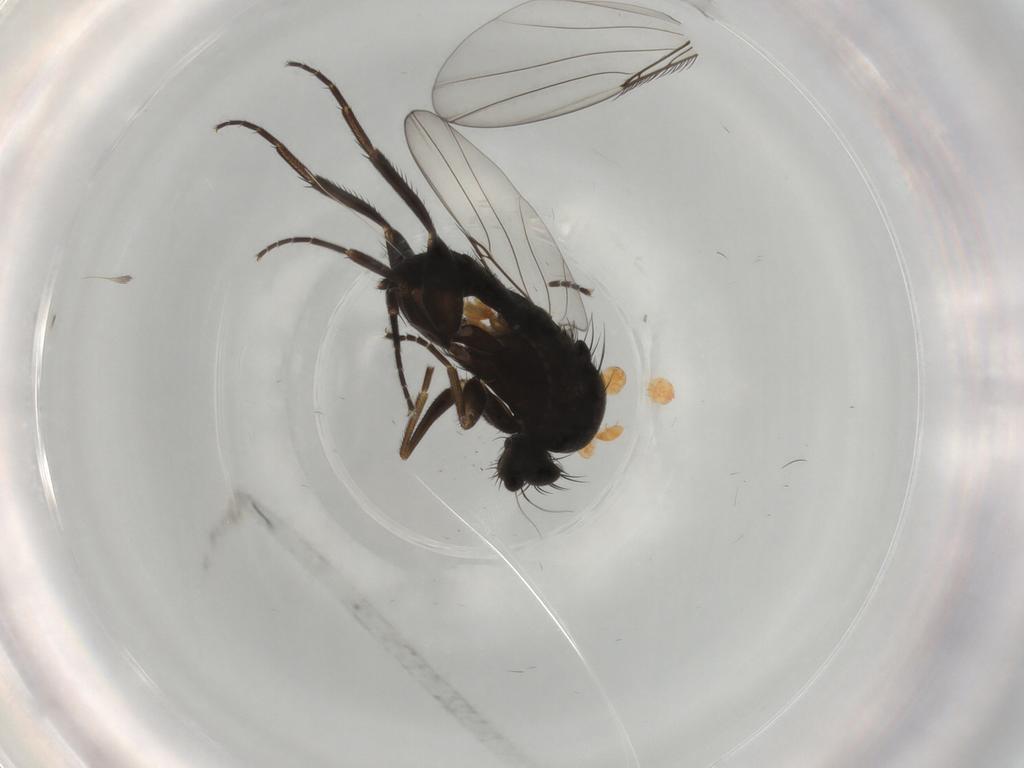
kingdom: Animalia
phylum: Arthropoda
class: Insecta
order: Diptera
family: Phoridae
